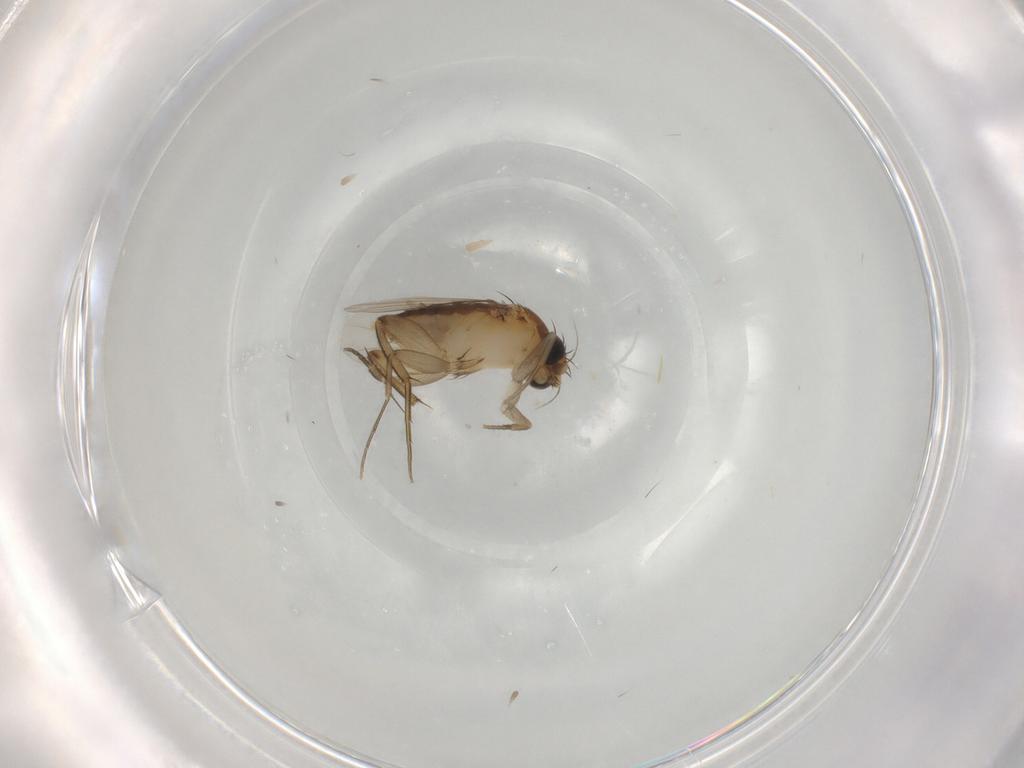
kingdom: Animalia
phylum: Arthropoda
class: Insecta
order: Diptera
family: Phoridae
